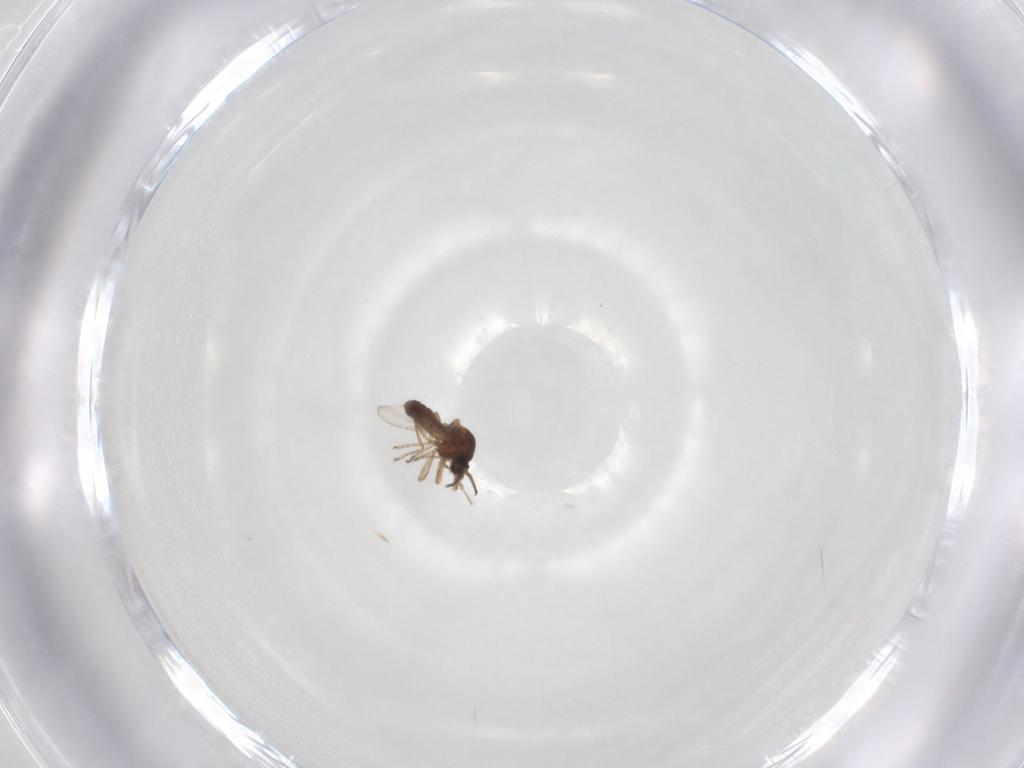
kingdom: Animalia
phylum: Arthropoda
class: Insecta
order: Diptera
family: Ceratopogonidae
